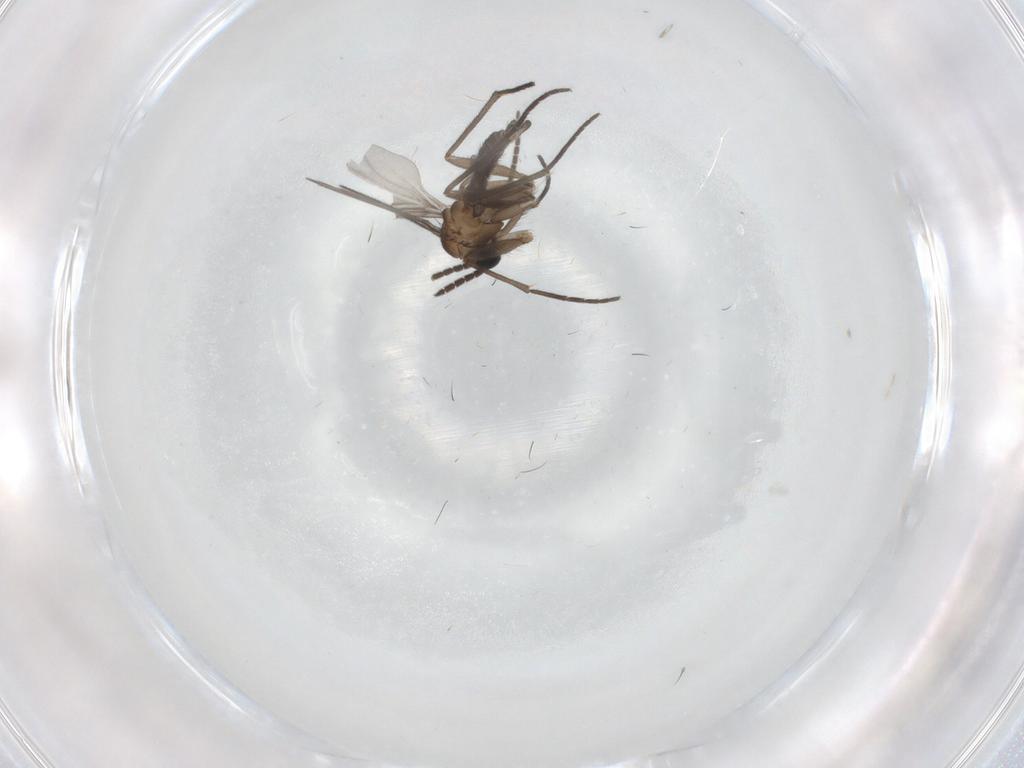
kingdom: Animalia
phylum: Arthropoda
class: Insecta
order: Diptera
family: Sciaridae
